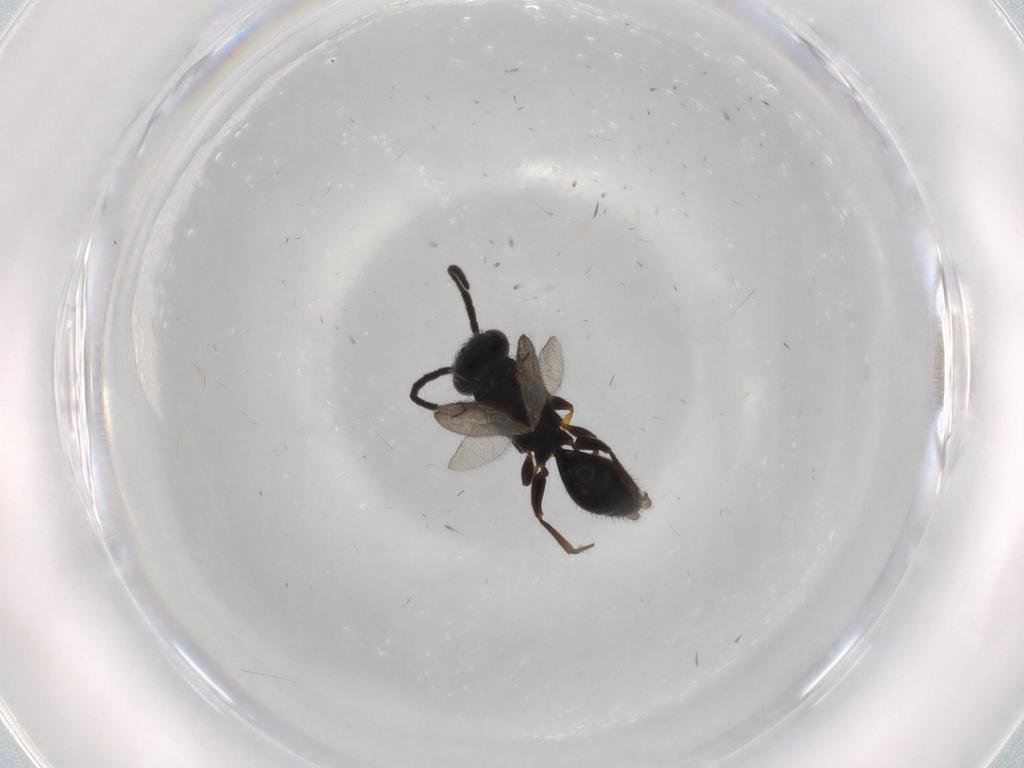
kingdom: Animalia
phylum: Arthropoda
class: Insecta
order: Hymenoptera
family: Bethylidae
